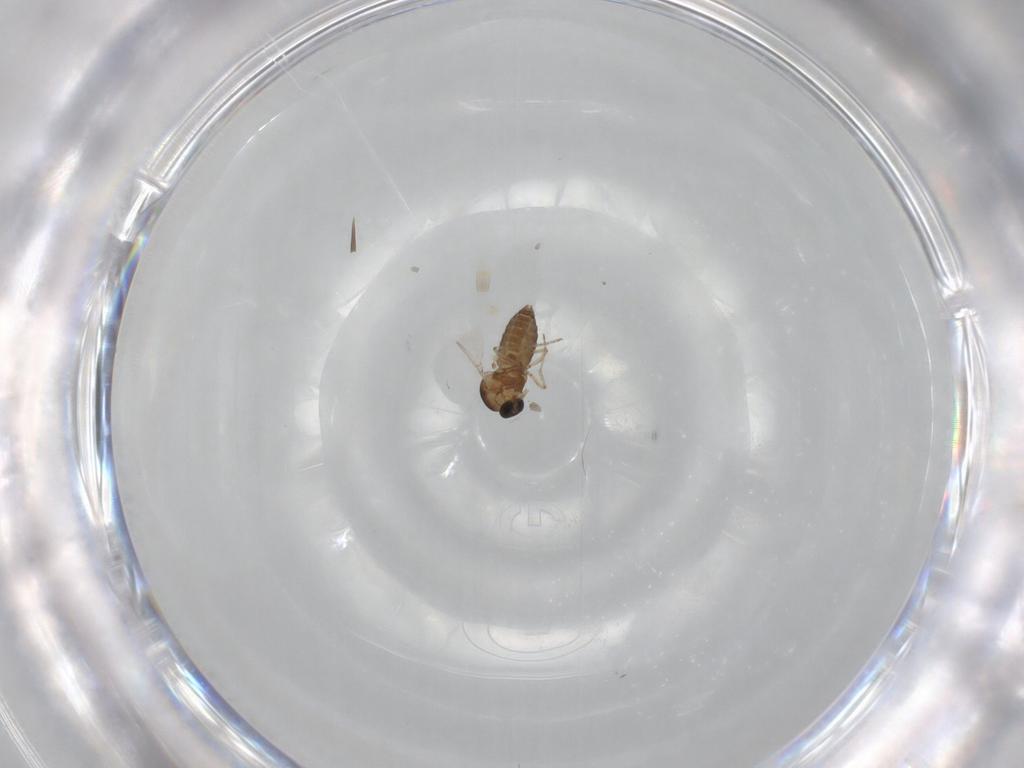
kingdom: Animalia
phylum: Arthropoda
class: Insecta
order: Diptera
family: Ceratopogonidae
